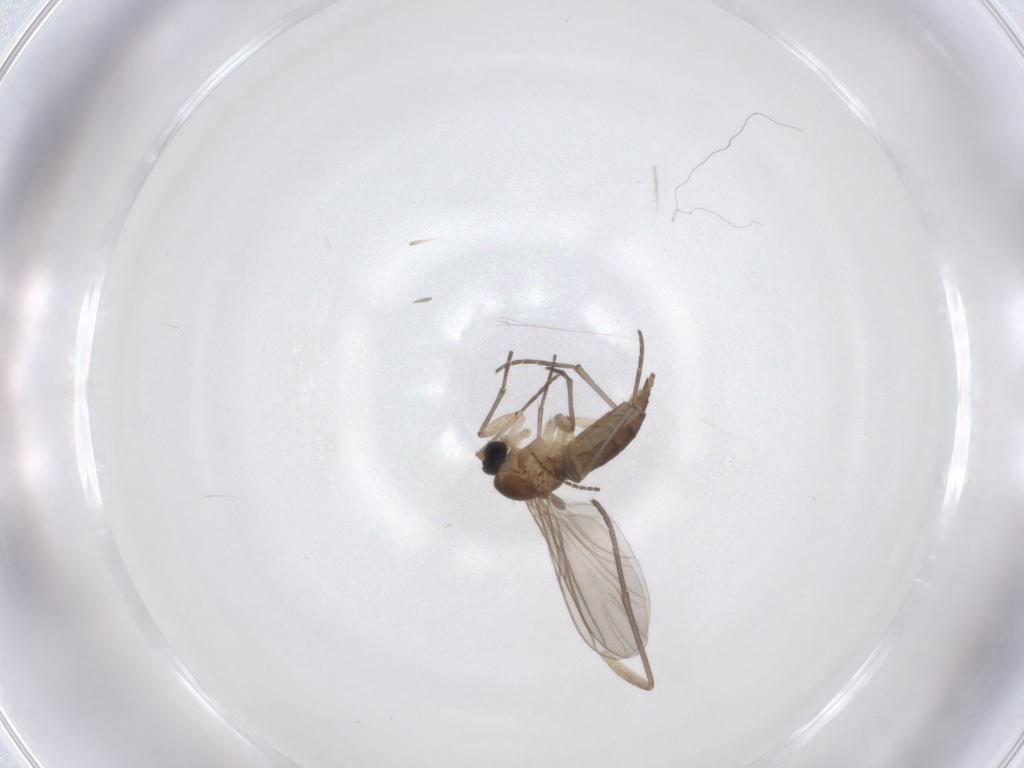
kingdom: Animalia
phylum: Arthropoda
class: Insecta
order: Diptera
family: Sciaridae
